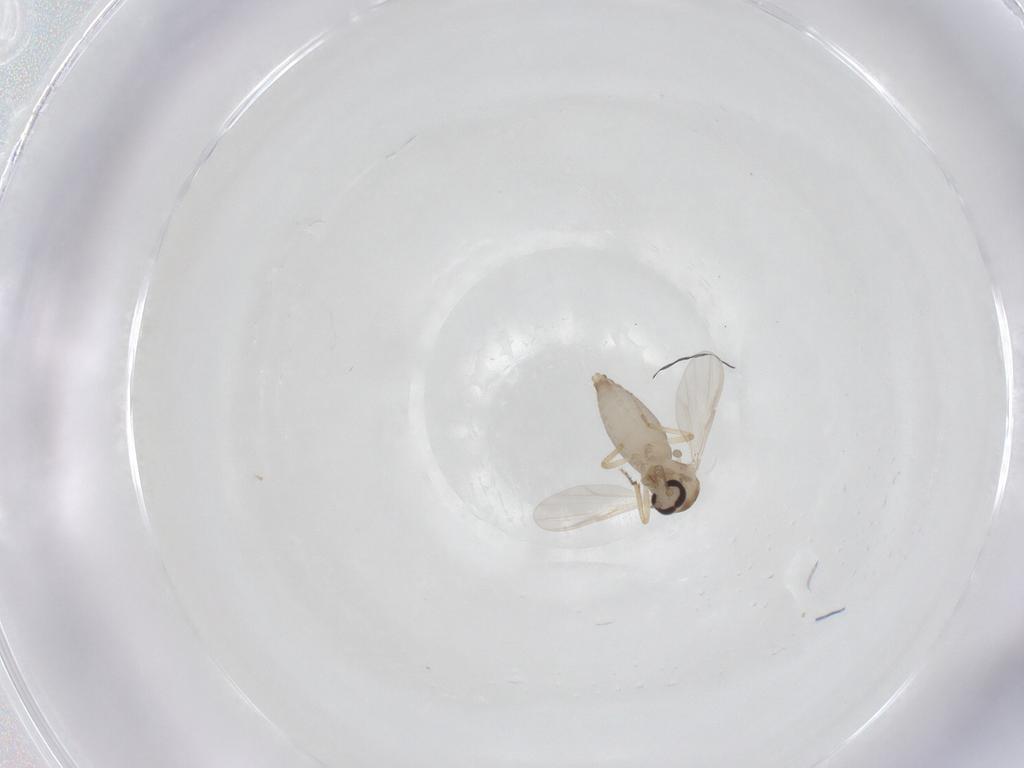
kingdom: Animalia
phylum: Arthropoda
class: Insecta
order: Diptera
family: Ceratopogonidae
